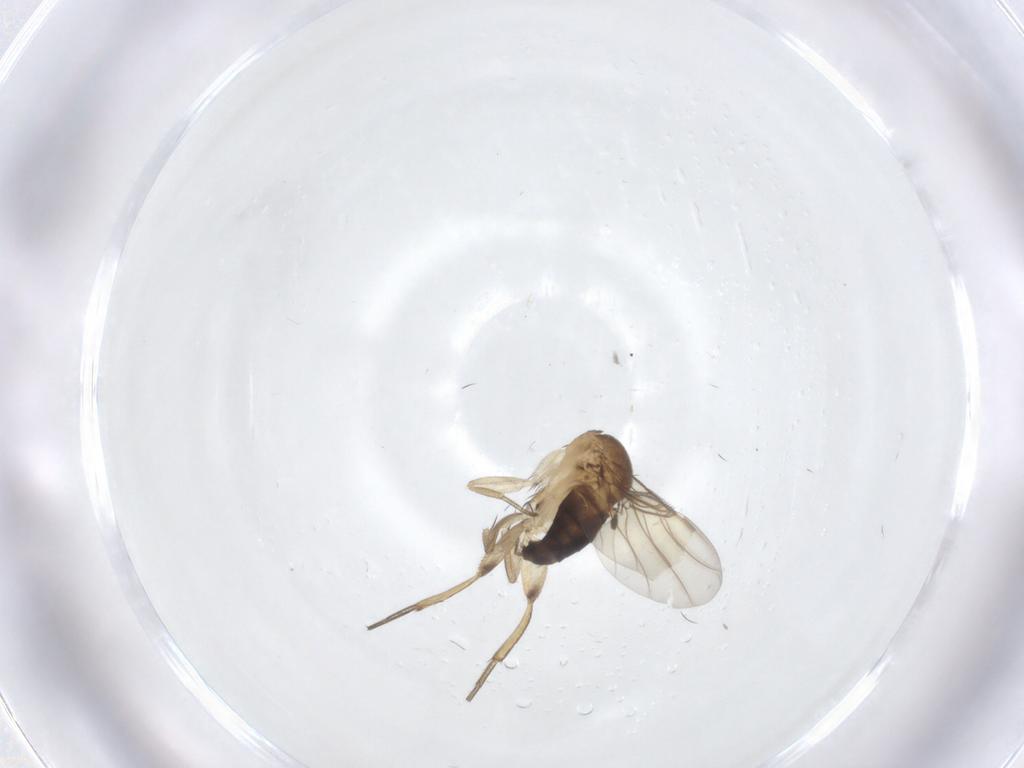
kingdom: Animalia
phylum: Arthropoda
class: Insecta
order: Diptera
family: Phoridae
